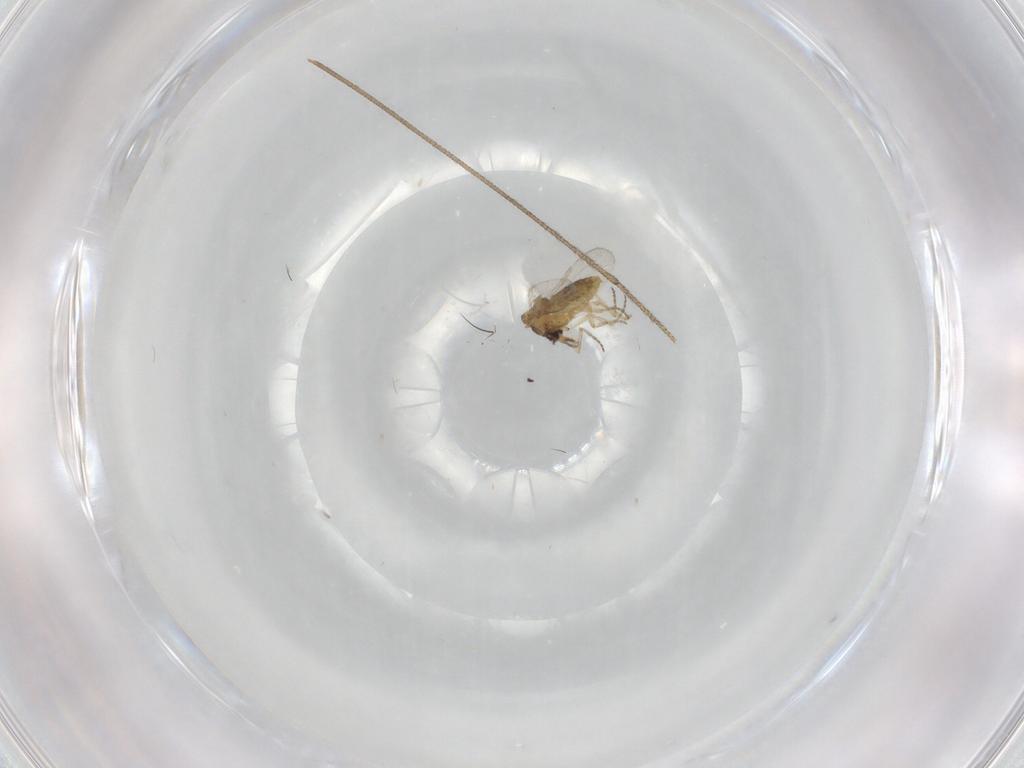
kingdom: Animalia
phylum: Arthropoda
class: Insecta
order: Diptera
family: Ceratopogonidae
